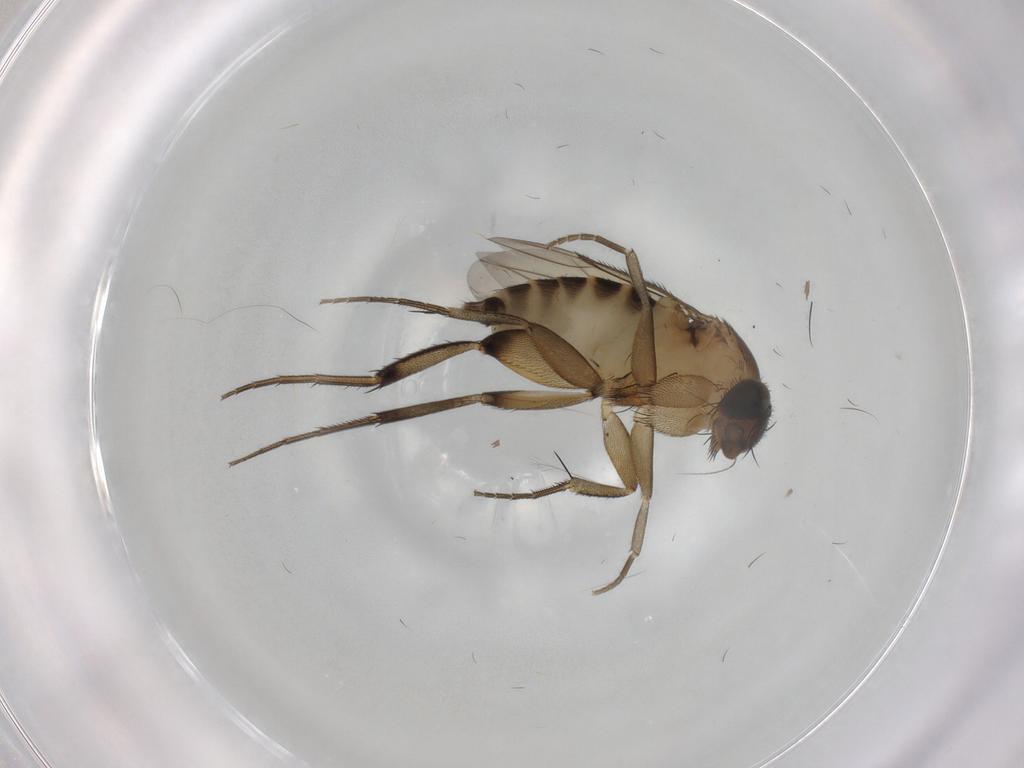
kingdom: Animalia
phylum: Arthropoda
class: Insecta
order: Diptera
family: Phoridae
